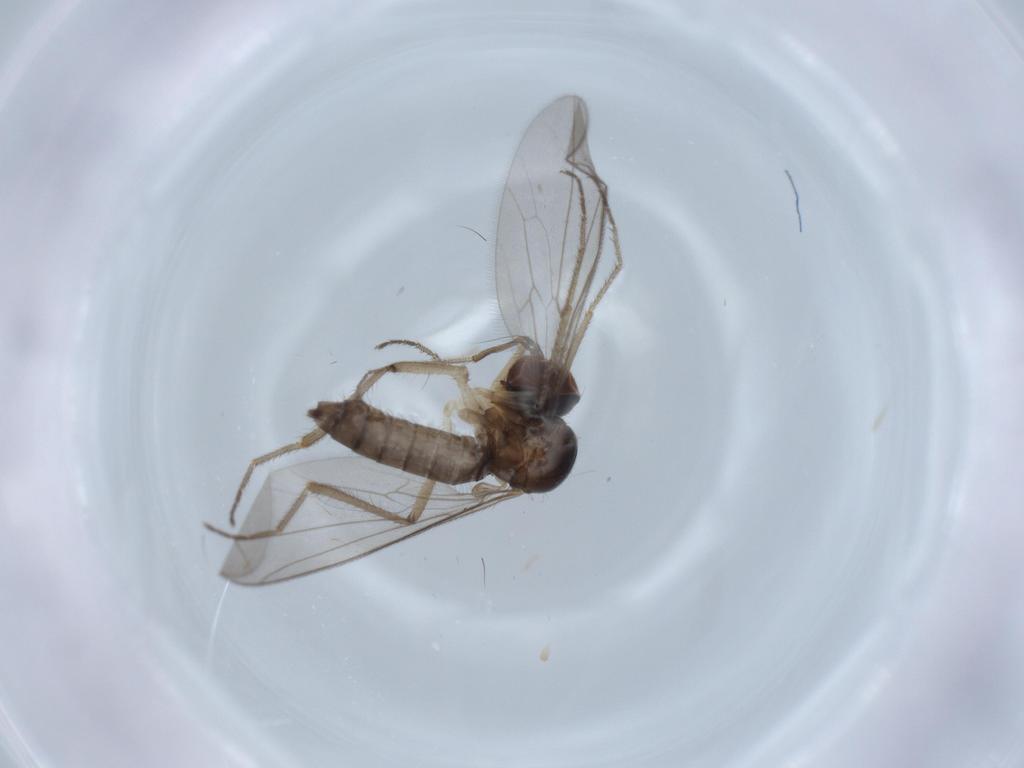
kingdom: Animalia
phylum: Arthropoda
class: Insecta
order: Diptera
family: Hybotidae
